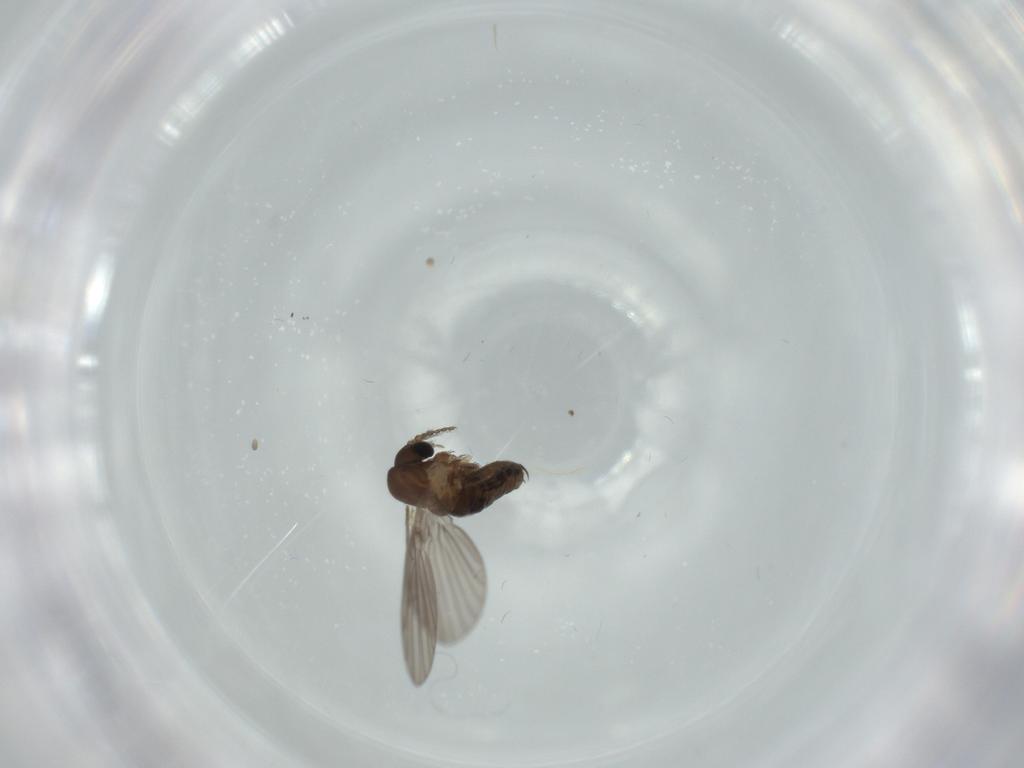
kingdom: Animalia
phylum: Arthropoda
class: Insecta
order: Diptera
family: Psychodidae
